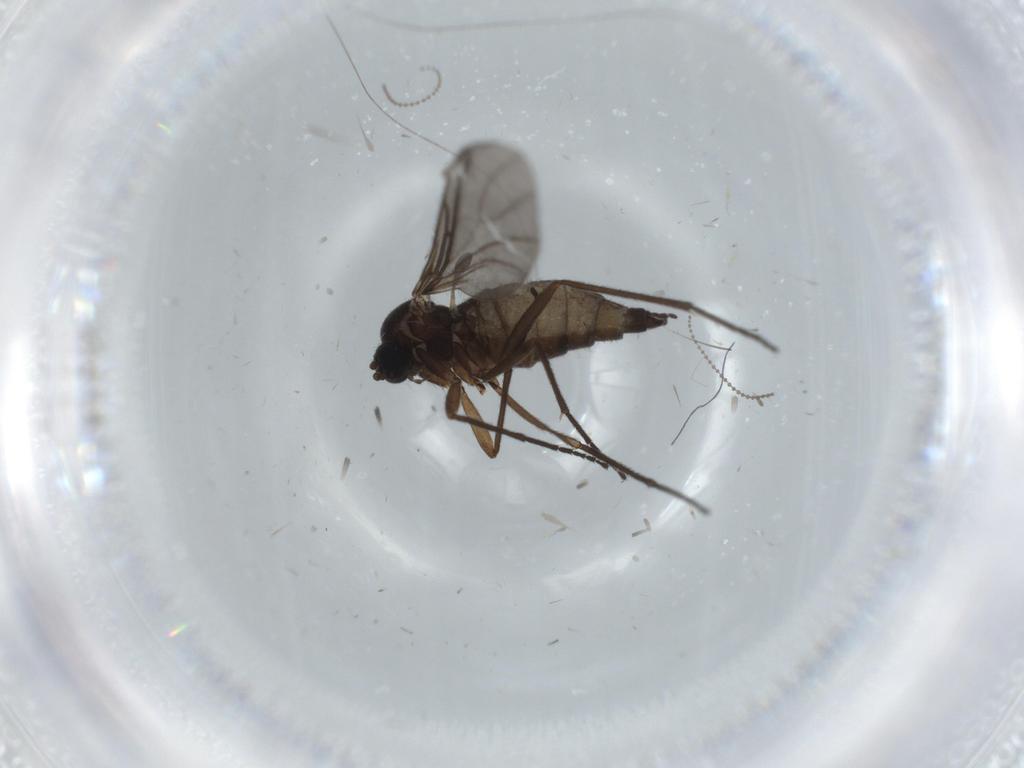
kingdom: Animalia
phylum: Arthropoda
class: Insecta
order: Diptera
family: Sciaridae
